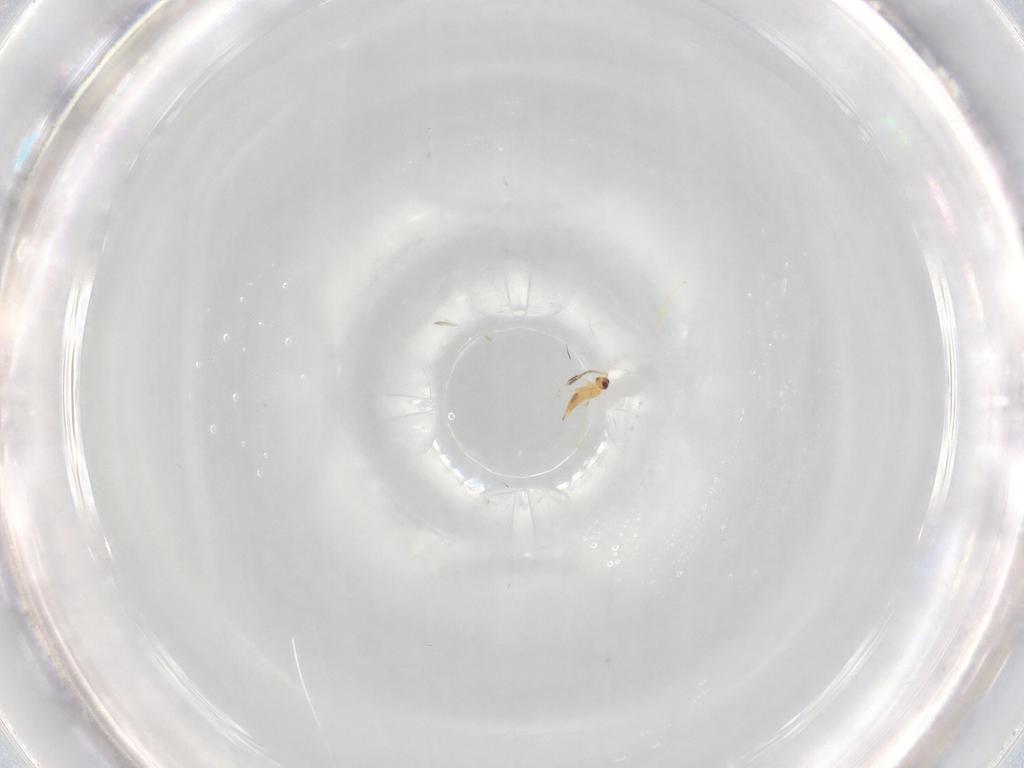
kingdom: Animalia
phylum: Arthropoda
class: Insecta
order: Hymenoptera
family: Mymaridae
